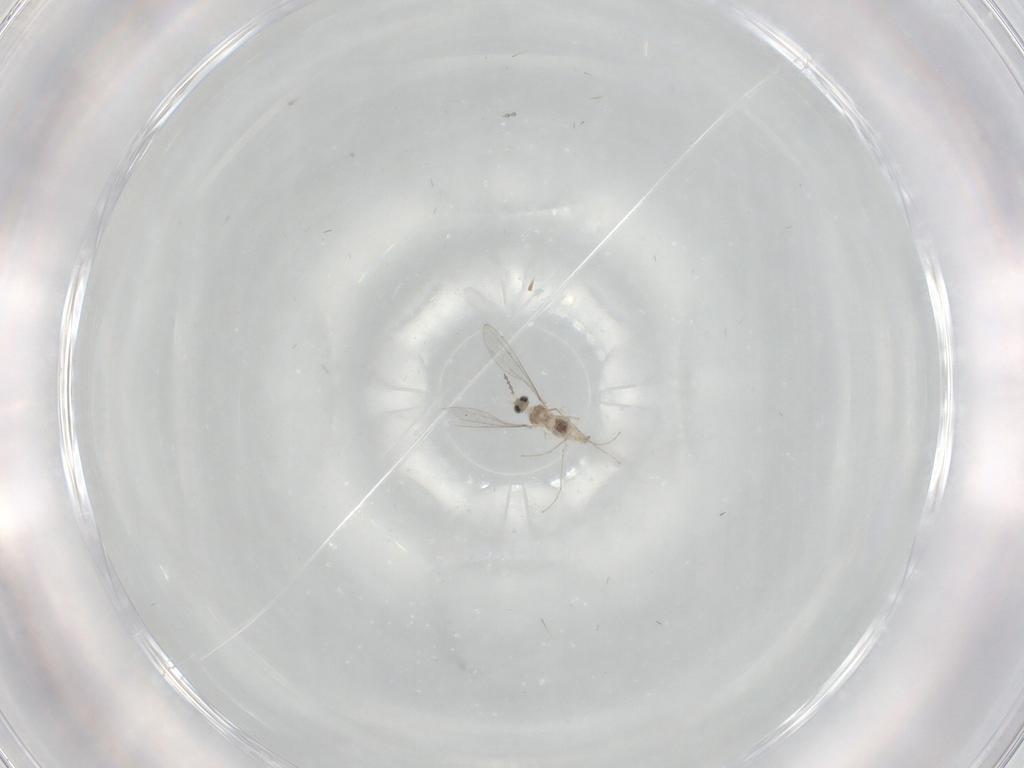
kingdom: Animalia
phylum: Arthropoda
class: Insecta
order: Diptera
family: Cecidomyiidae
